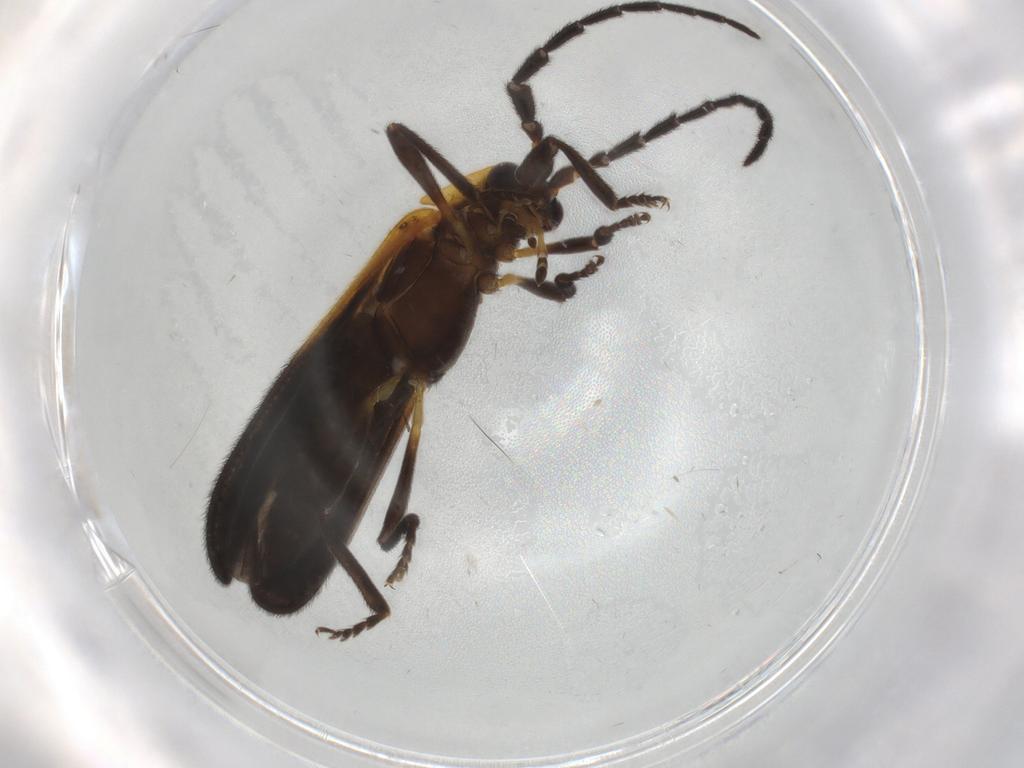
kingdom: Animalia
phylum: Arthropoda
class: Insecta
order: Coleoptera
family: Lycidae
